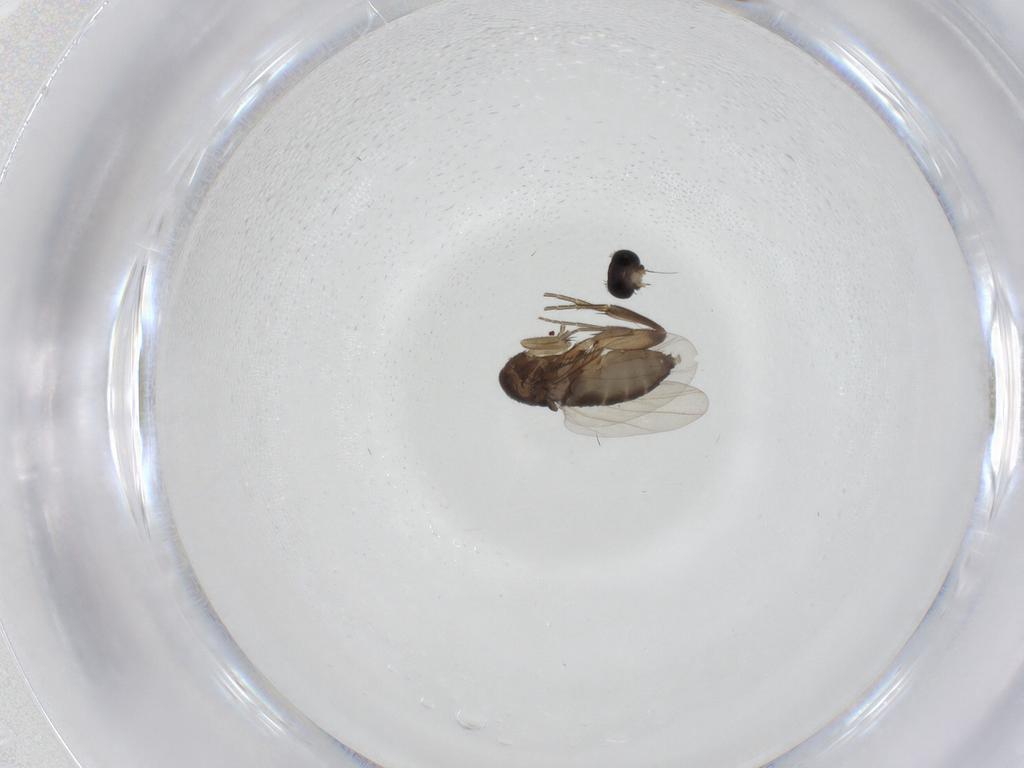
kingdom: Animalia
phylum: Arthropoda
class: Insecta
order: Diptera
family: Phoridae
